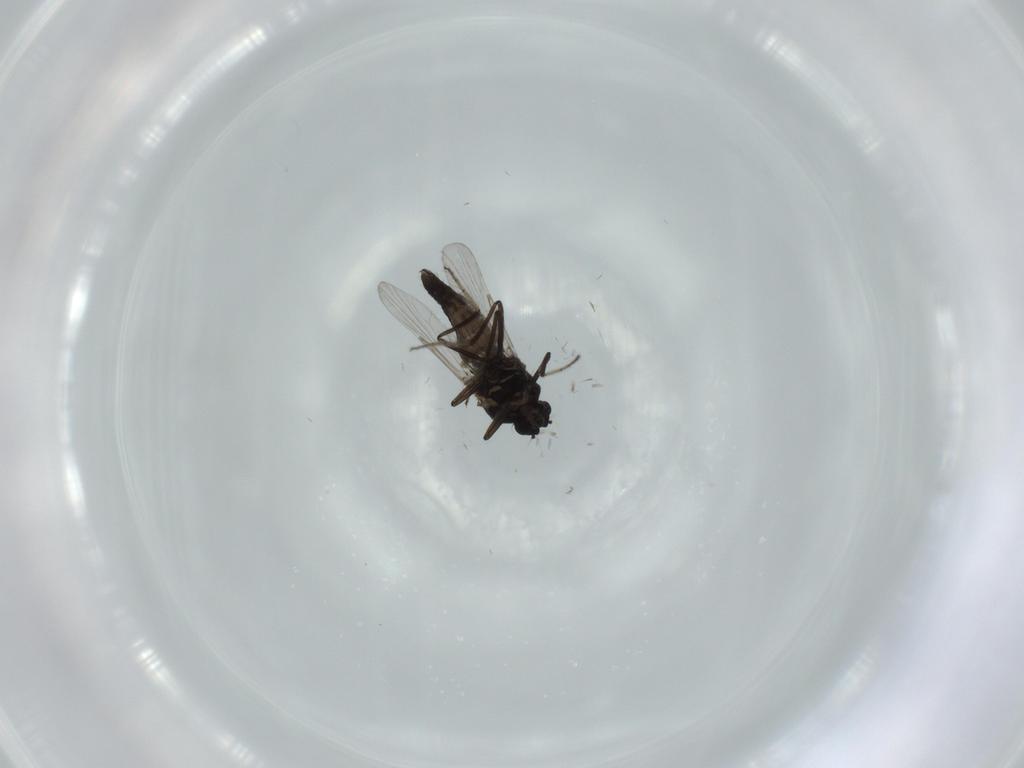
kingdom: Animalia
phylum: Arthropoda
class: Insecta
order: Diptera
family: Ceratopogonidae
